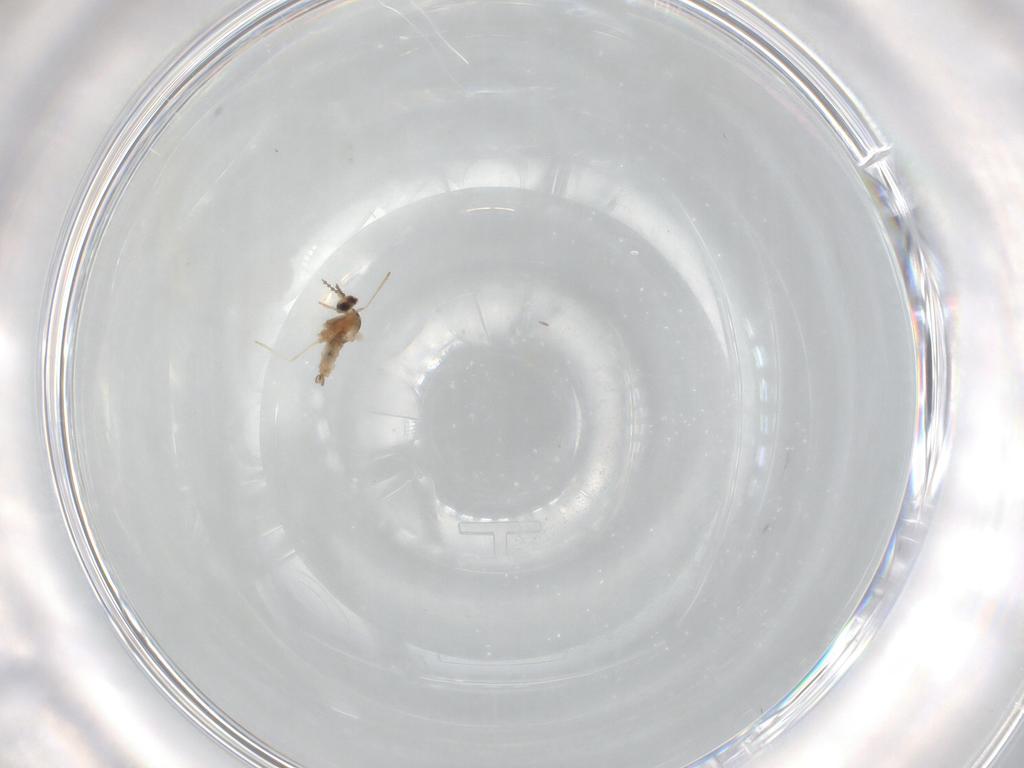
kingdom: Animalia
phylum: Arthropoda
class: Insecta
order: Diptera
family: Cecidomyiidae
